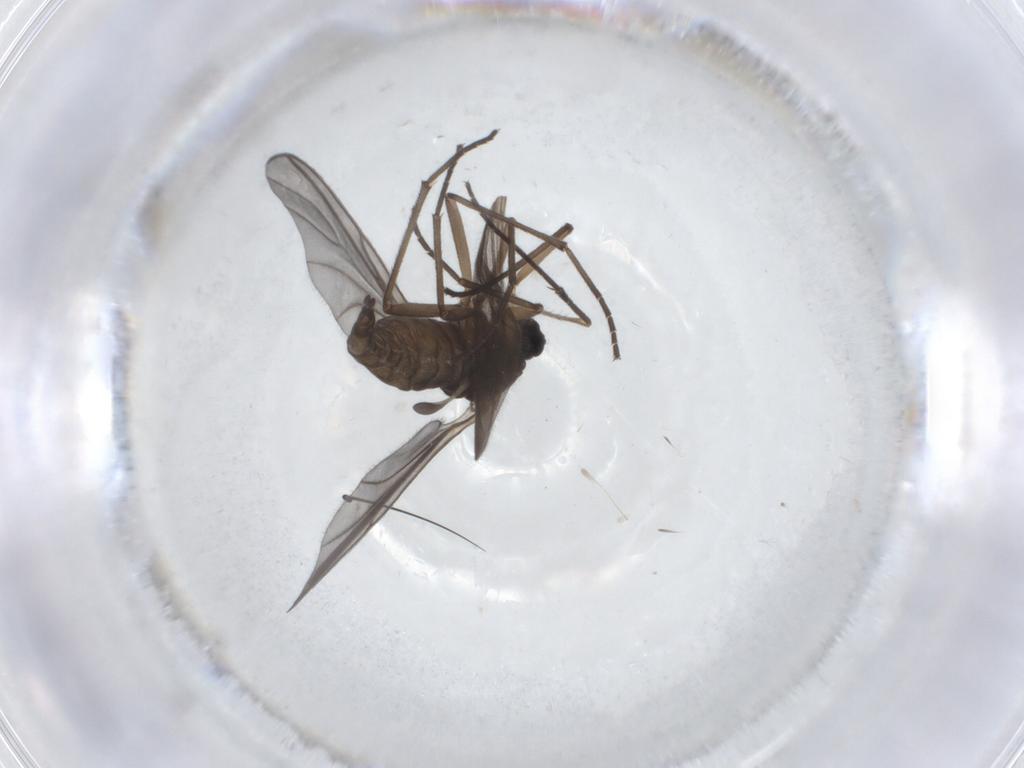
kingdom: Animalia
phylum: Arthropoda
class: Insecta
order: Diptera
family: Sciaridae
